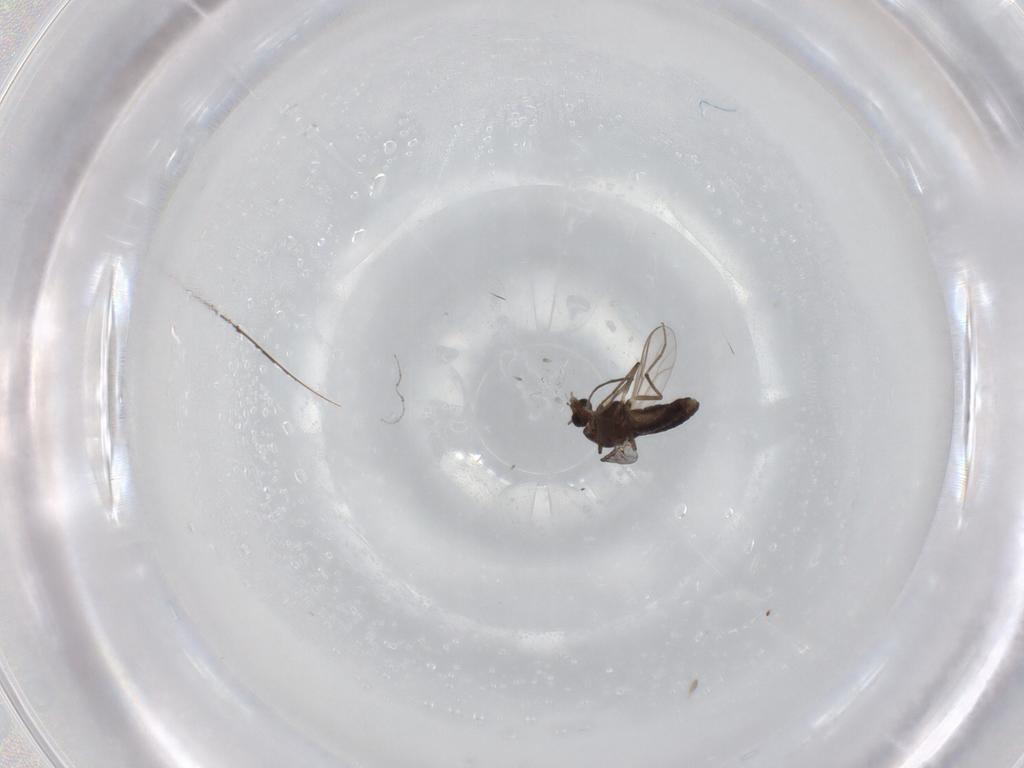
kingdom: Animalia
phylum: Arthropoda
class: Insecta
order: Diptera
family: Chironomidae
